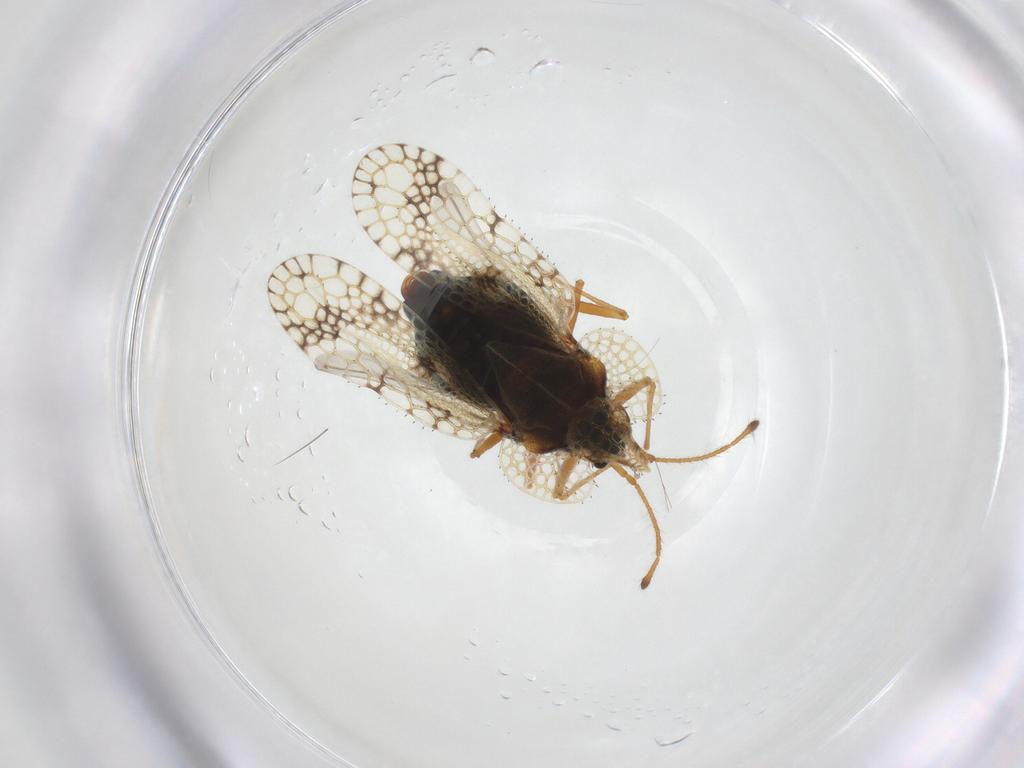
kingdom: Animalia
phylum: Arthropoda
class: Insecta
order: Hemiptera
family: Tingidae
